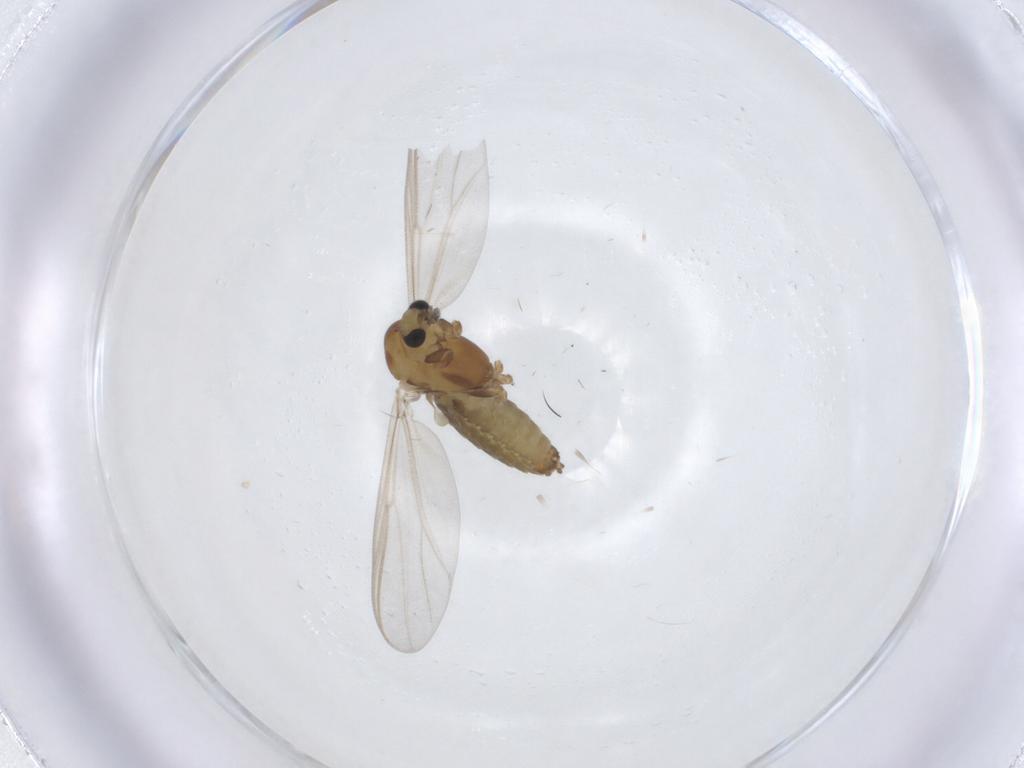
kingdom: Animalia
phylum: Arthropoda
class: Insecta
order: Diptera
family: Chironomidae
